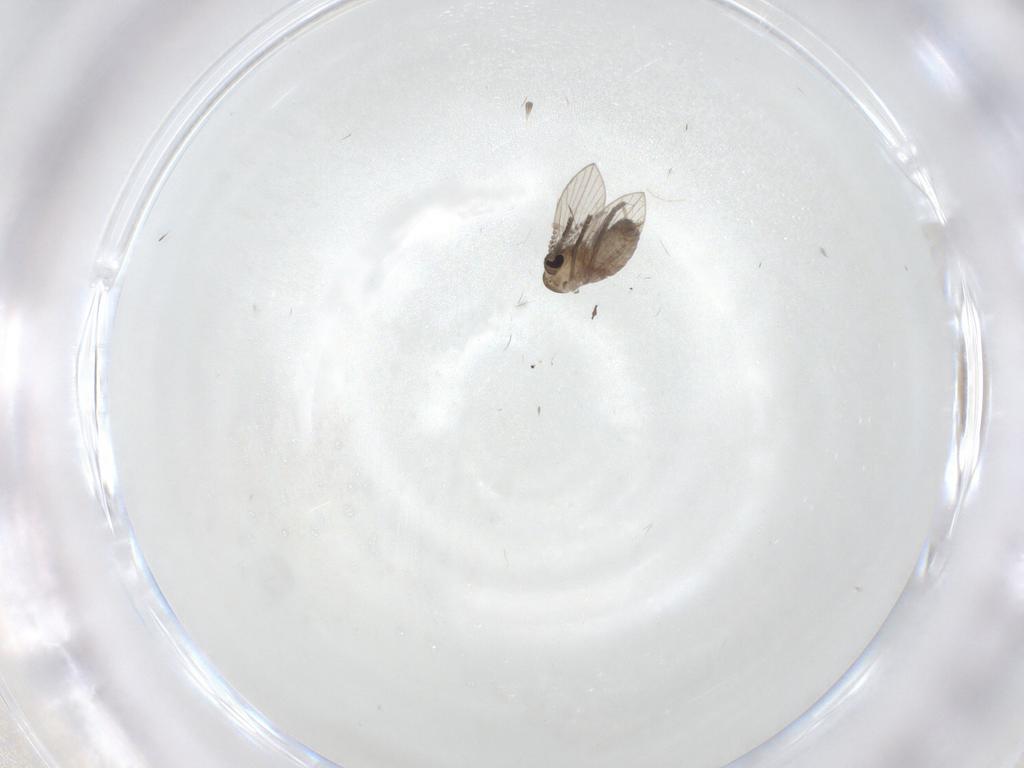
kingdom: Animalia
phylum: Arthropoda
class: Insecta
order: Diptera
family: Psychodidae
